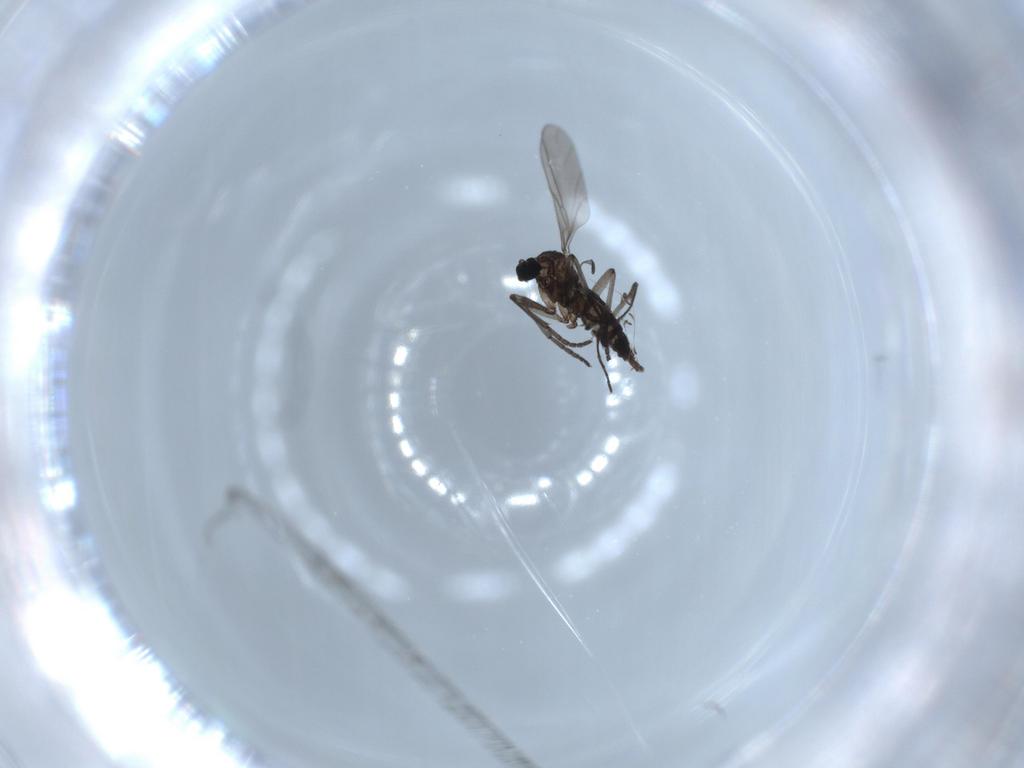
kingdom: Animalia
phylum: Arthropoda
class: Insecta
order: Diptera
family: Sciaridae
